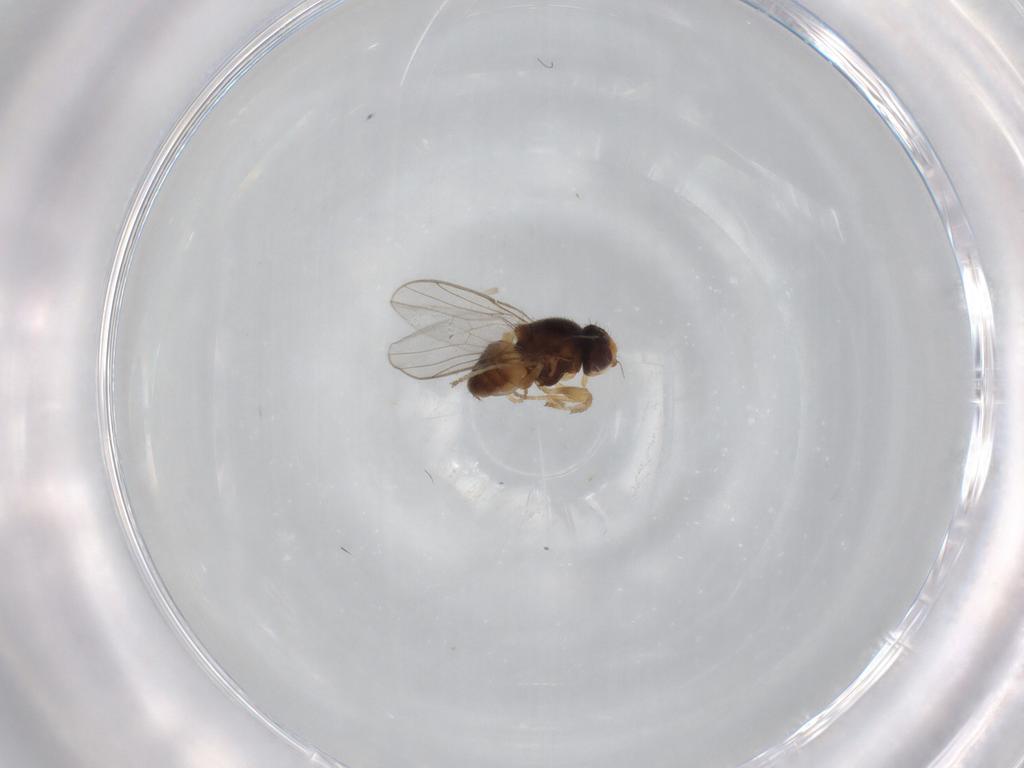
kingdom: Animalia
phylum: Arthropoda
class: Insecta
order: Diptera
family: Chloropidae
